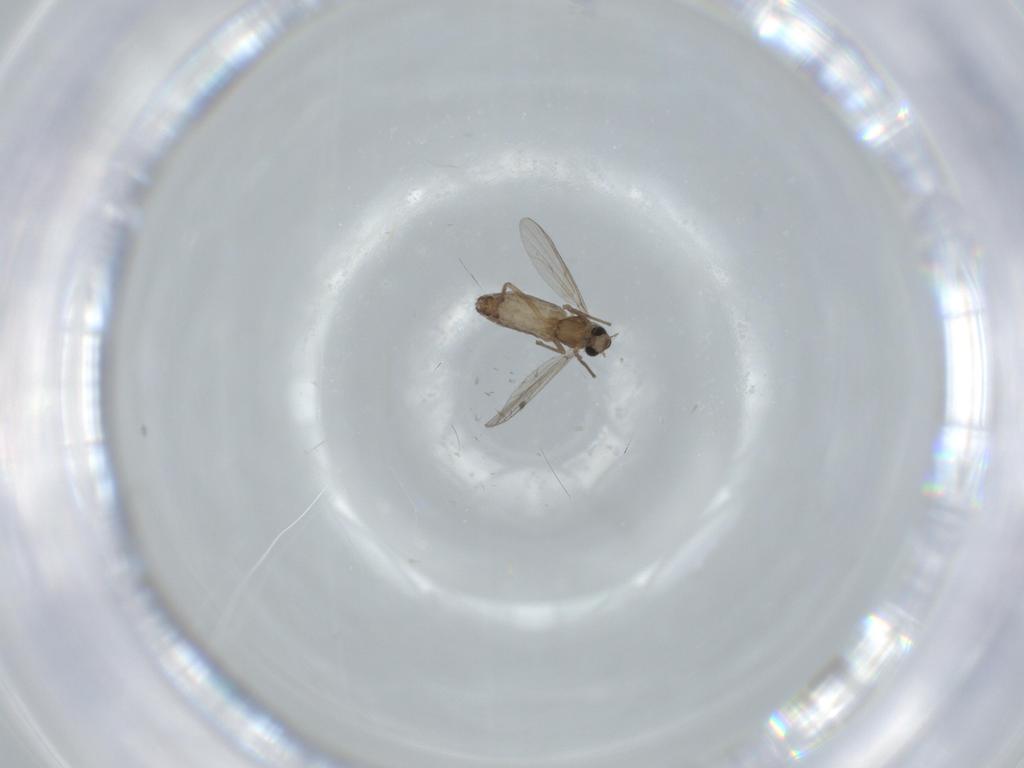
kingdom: Animalia
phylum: Arthropoda
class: Insecta
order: Diptera
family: Chironomidae
